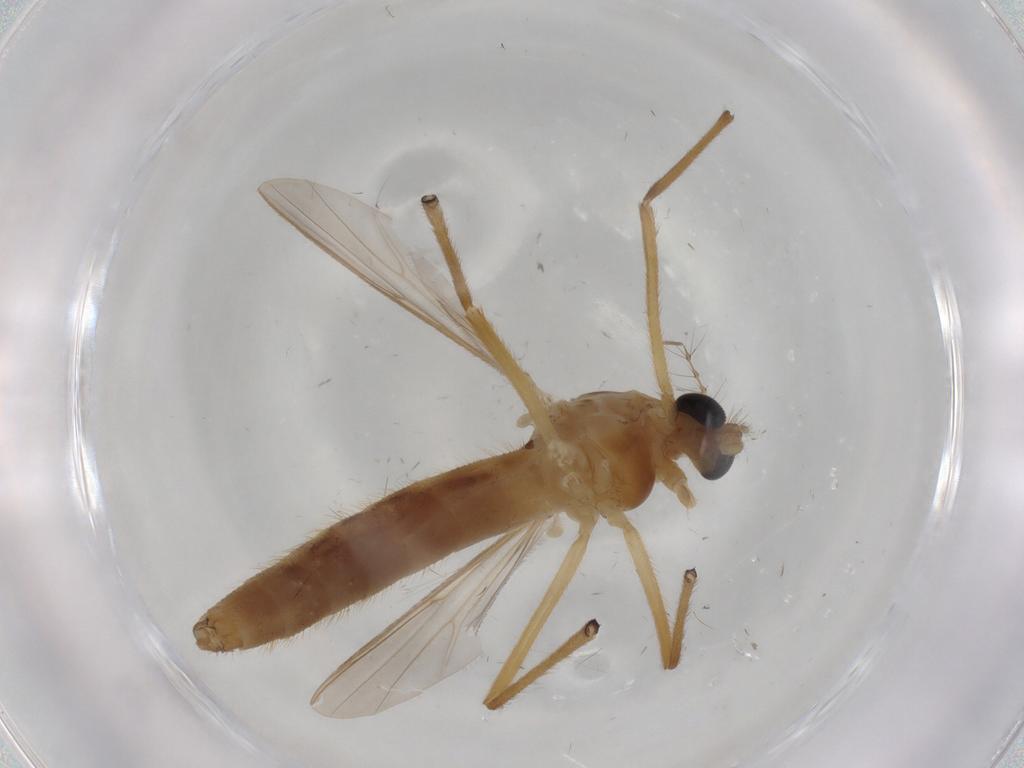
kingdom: Animalia
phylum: Arthropoda
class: Insecta
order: Diptera
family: Chironomidae
